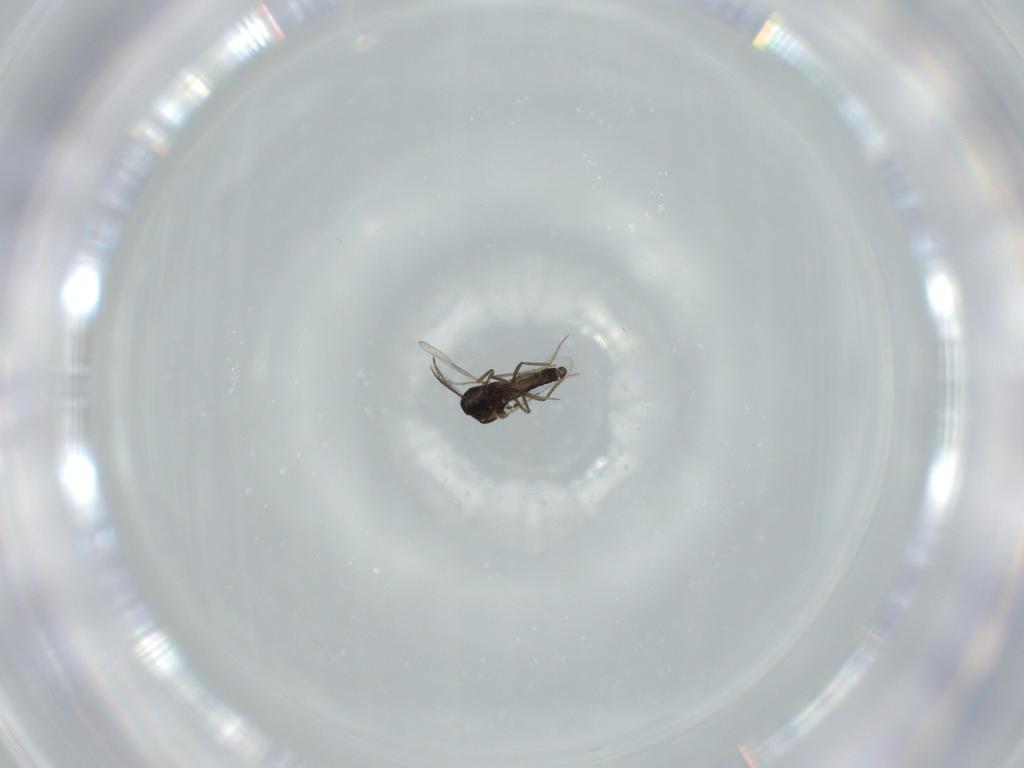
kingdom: Animalia
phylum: Arthropoda
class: Insecta
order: Diptera
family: Ceratopogonidae
